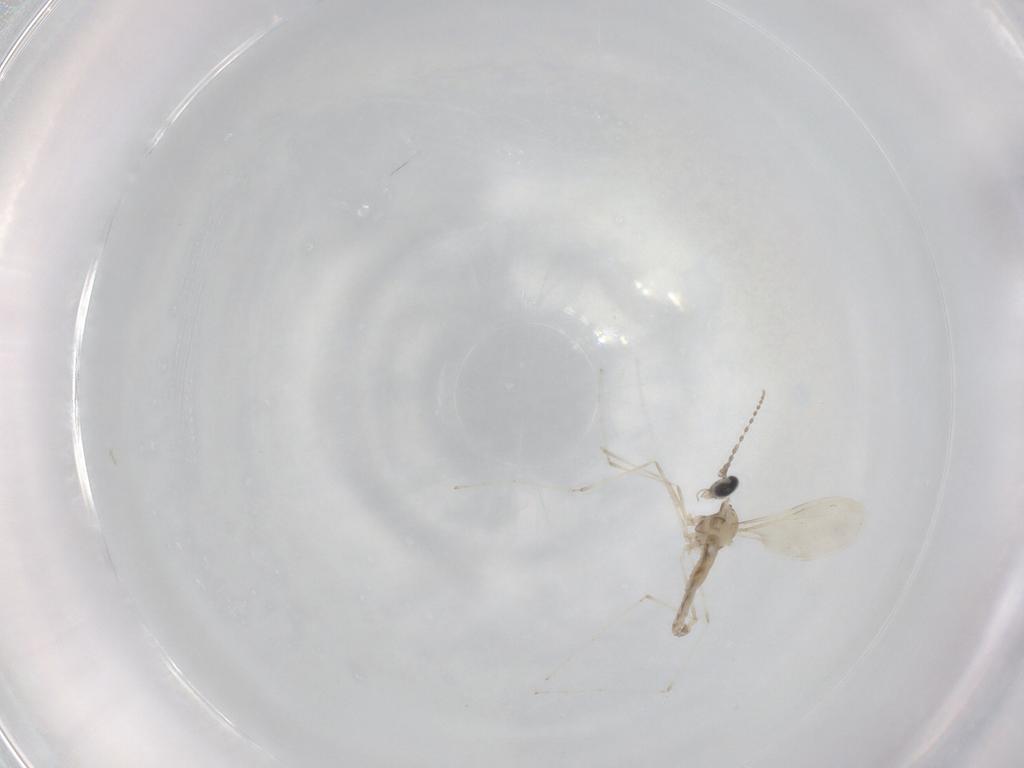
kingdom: Animalia
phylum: Arthropoda
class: Insecta
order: Diptera
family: Cecidomyiidae
